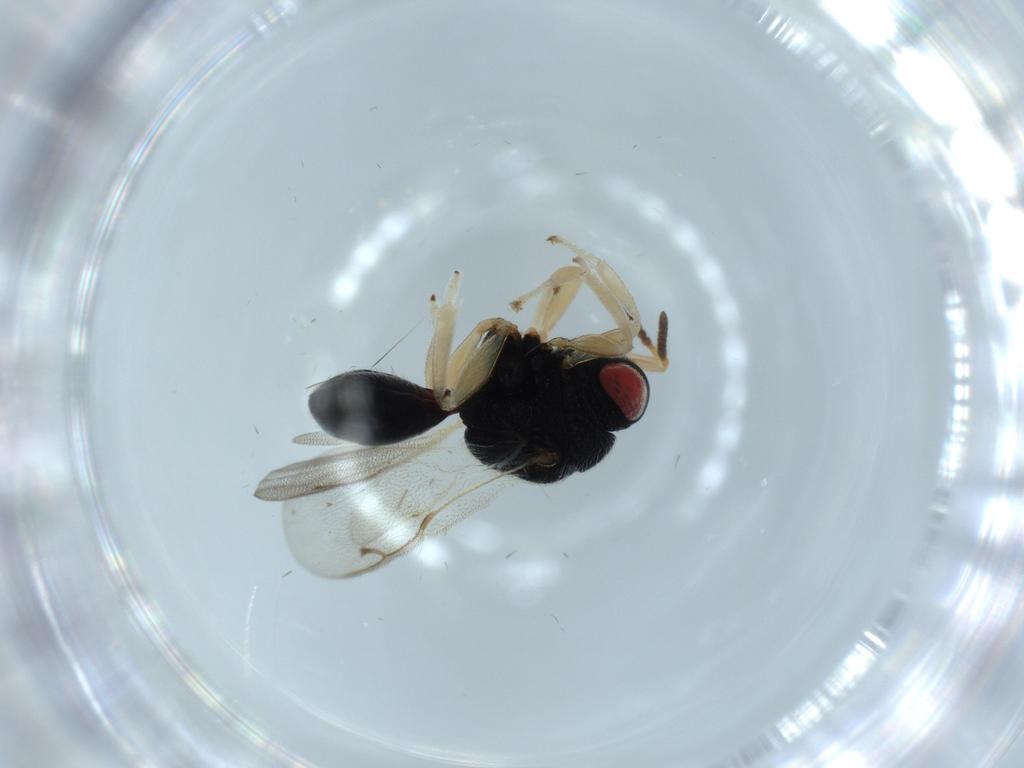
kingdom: Animalia
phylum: Arthropoda
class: Insecta
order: Hymenoptera
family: Eurytomidae
